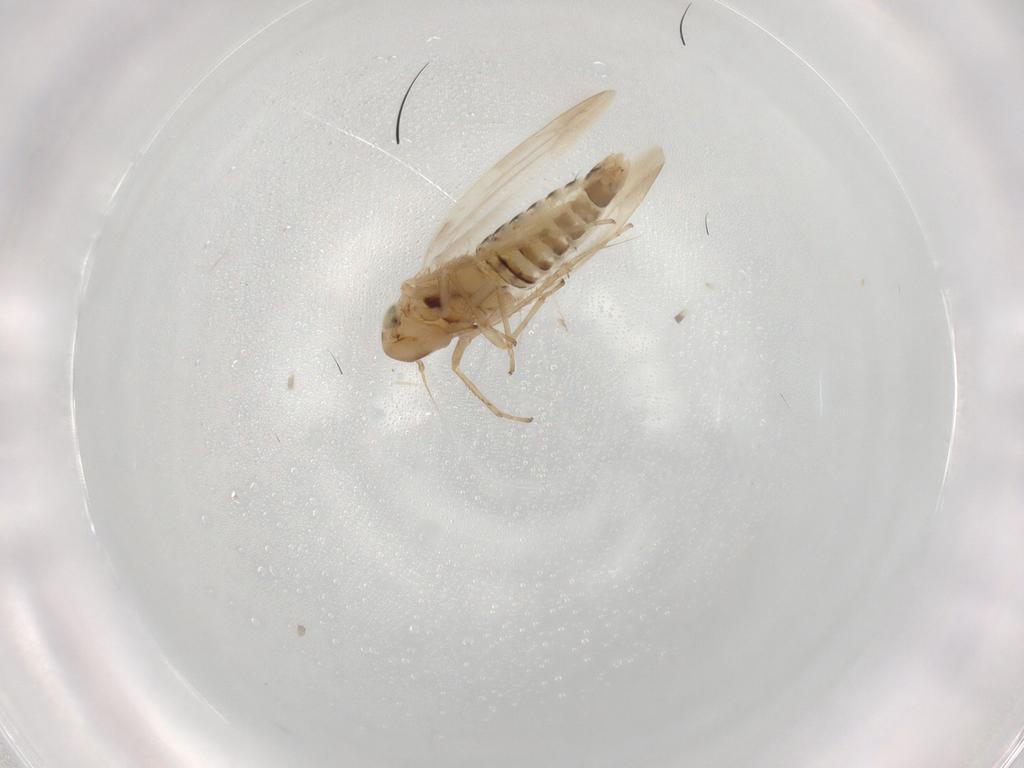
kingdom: Animalia
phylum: Arthropoda
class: Insecta
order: Hemiptera
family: Cicadellidae
